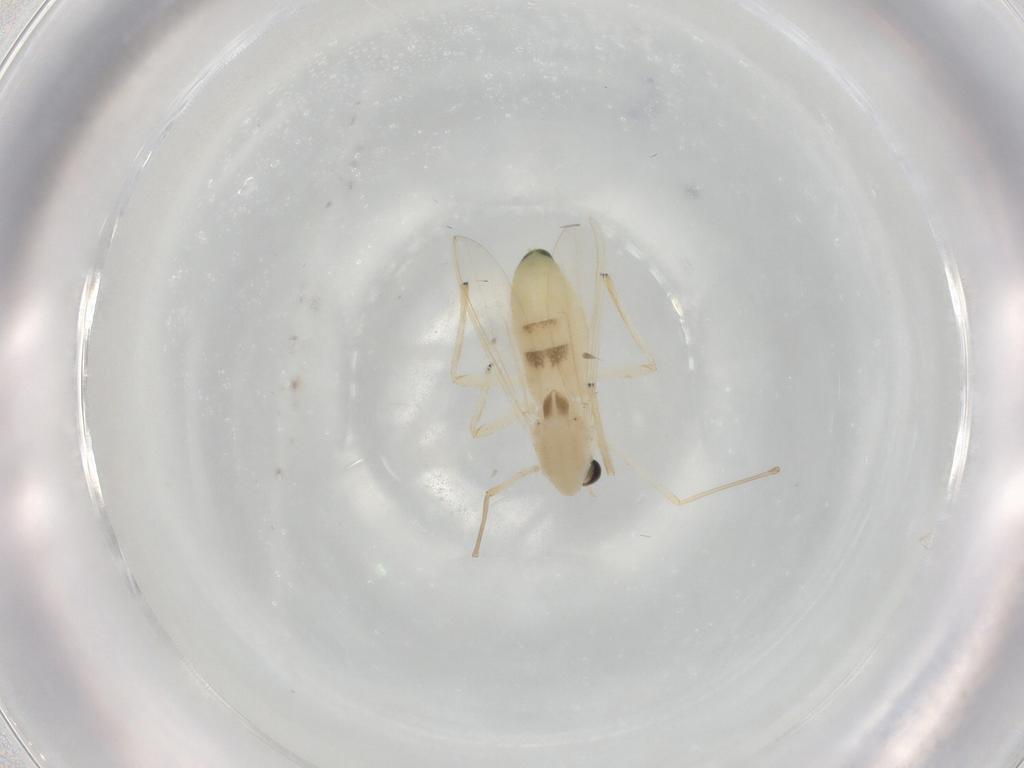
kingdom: Animalia
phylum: Arthropoda
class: Insecta
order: Diptera
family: Chironomidae
